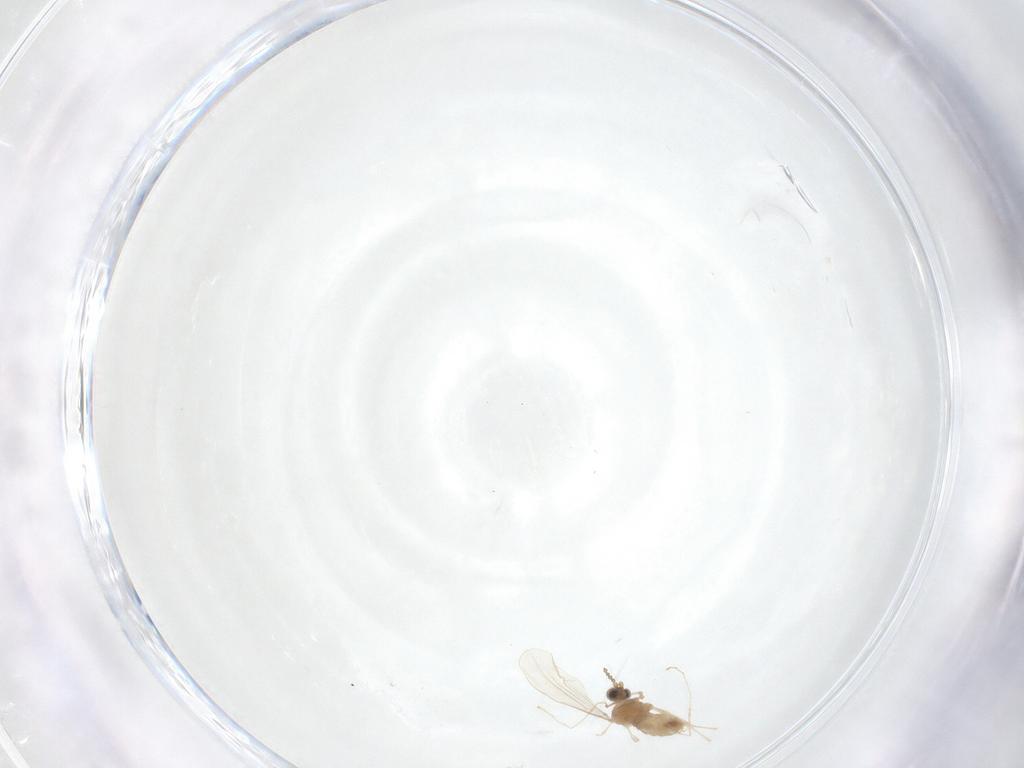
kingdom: Animalia
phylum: Arthropoda
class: Insecta
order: Diptera
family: Cecidomyiidae
